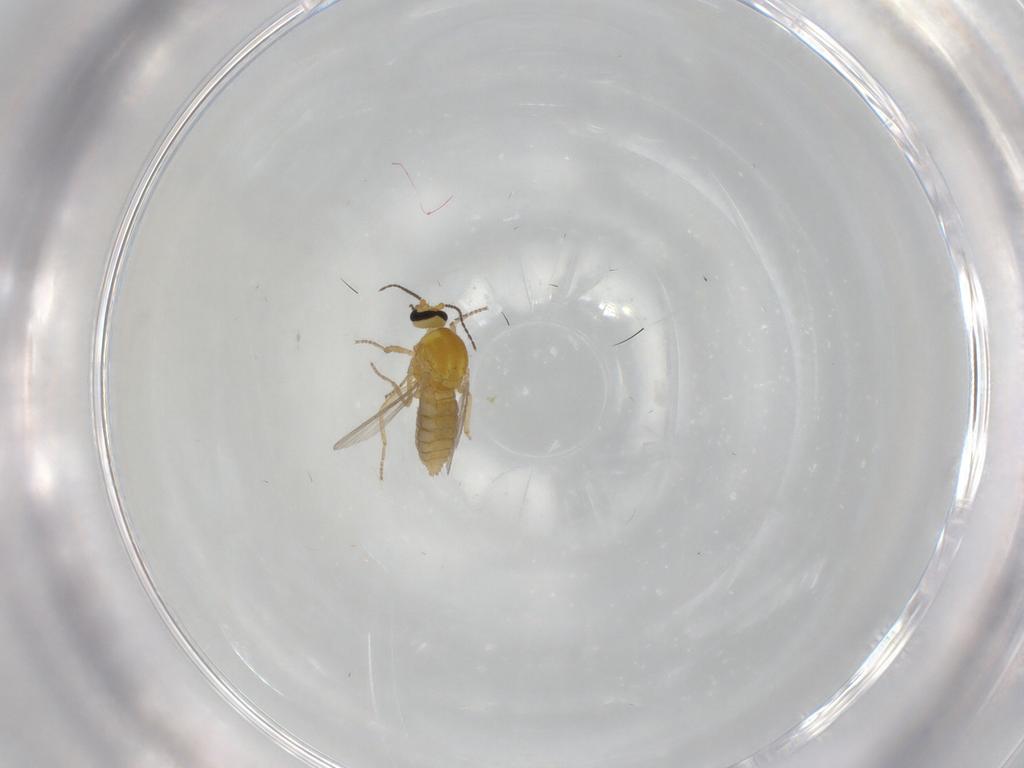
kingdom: Animalia
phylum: Arthropoda
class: Insecta
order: Diptera
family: Ceratopogonidae
